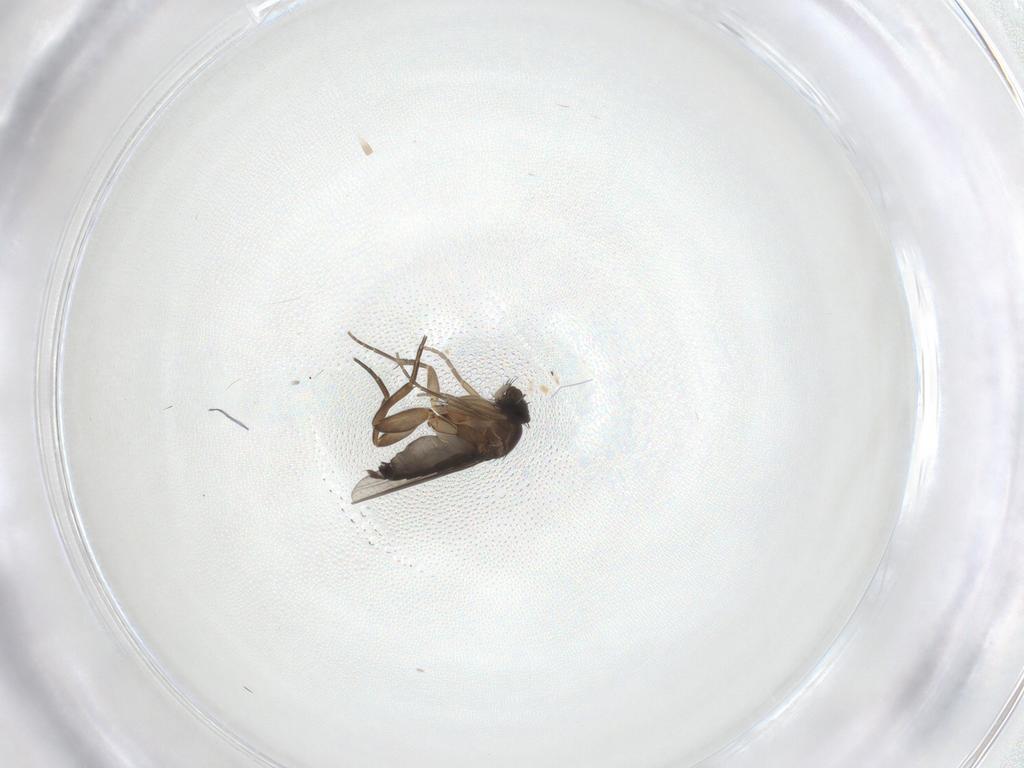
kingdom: Animalia
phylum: Arthropoda
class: Insecta
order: Diptera
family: Phoridae
